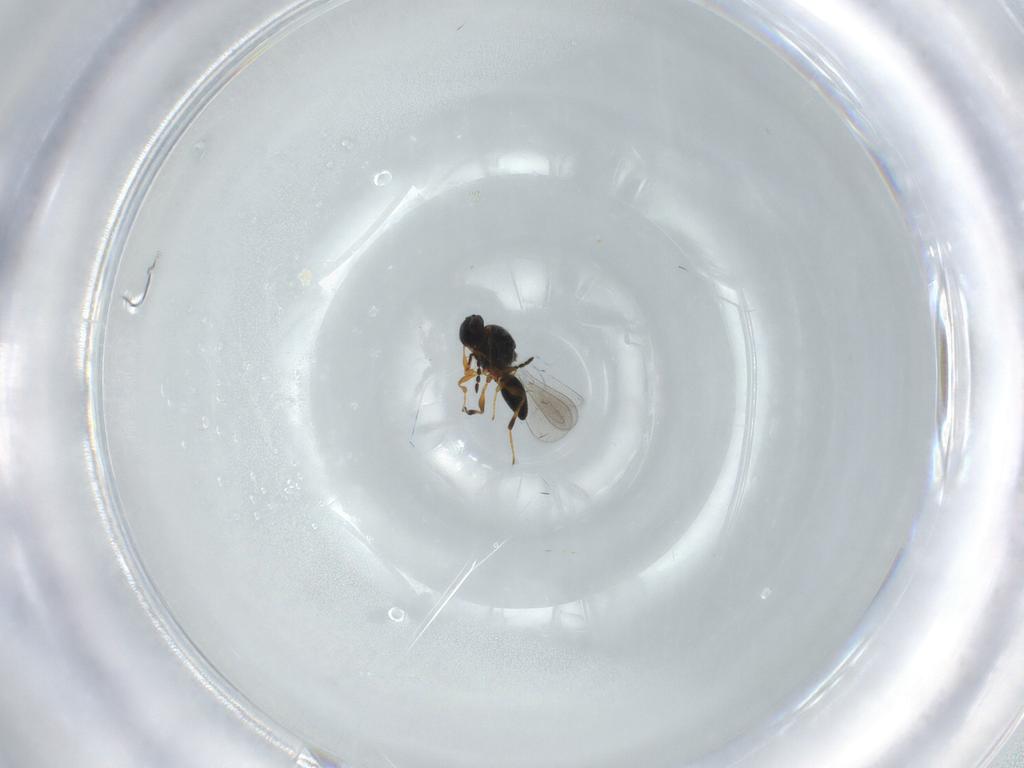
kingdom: Animalia
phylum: Arthropoda
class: Insecta
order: Hymenoptera
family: Platygastridae
